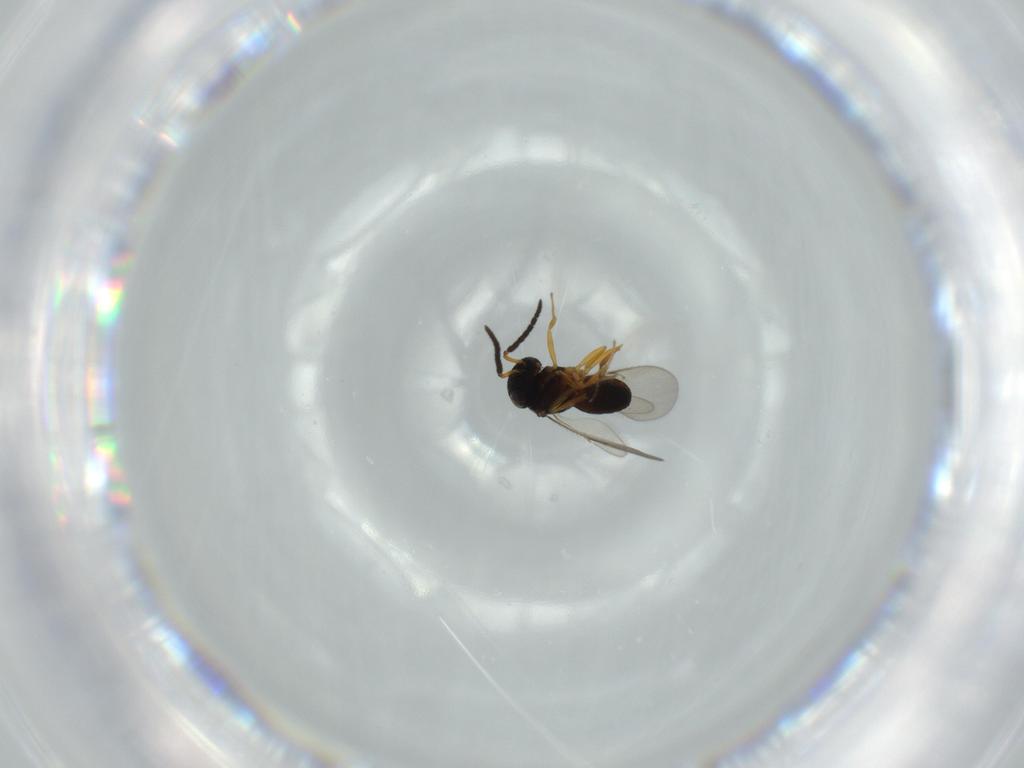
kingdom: Animalia
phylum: Arthropoda
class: Insecta
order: Coleoptera
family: Curculionidae
